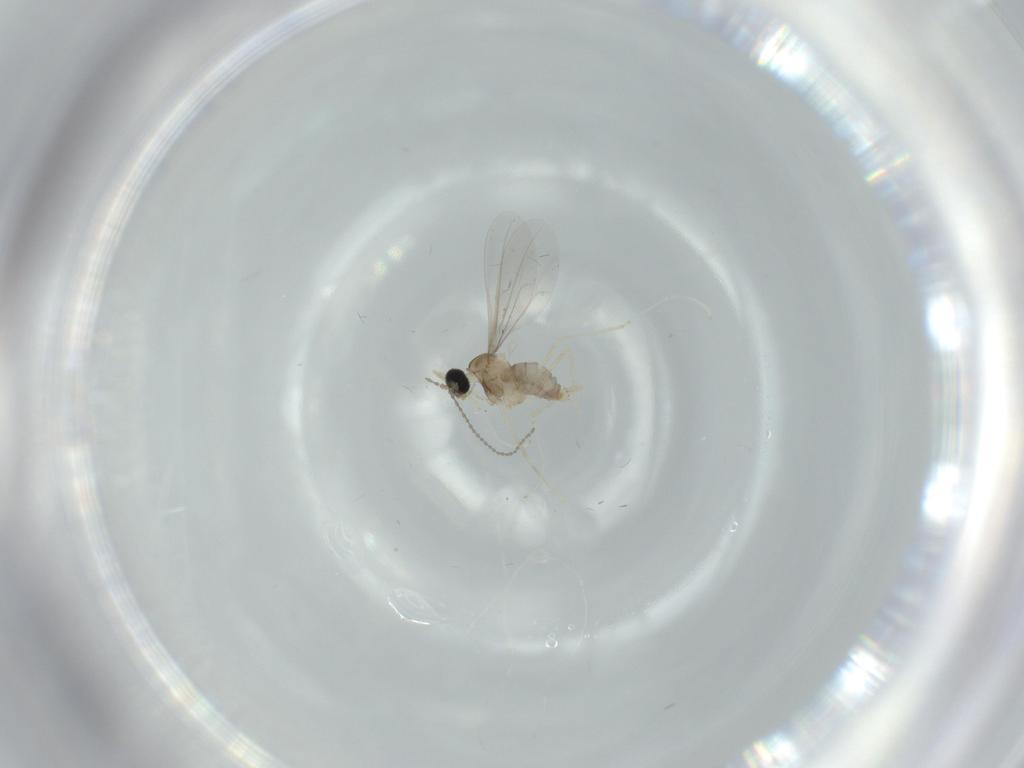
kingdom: Animalia
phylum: Arthropoda
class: Insecta
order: Diptera
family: Cecidomyiidae
